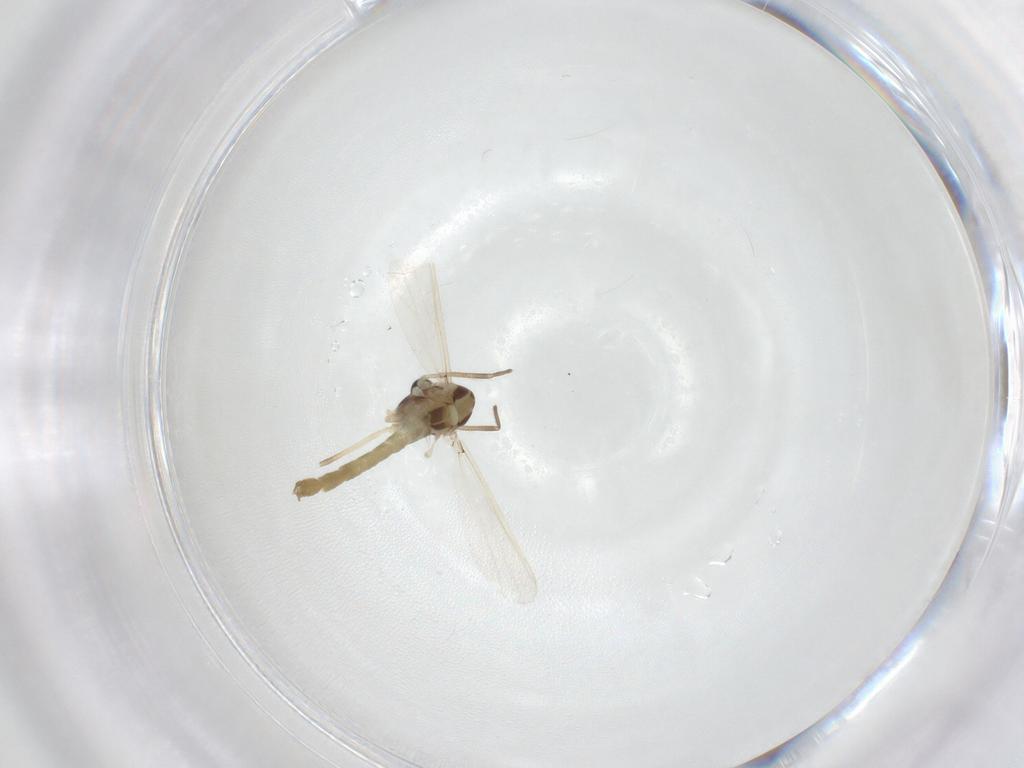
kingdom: Animalia
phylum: Arthropoda
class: Insecta
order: Diptera
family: Chironomidae
